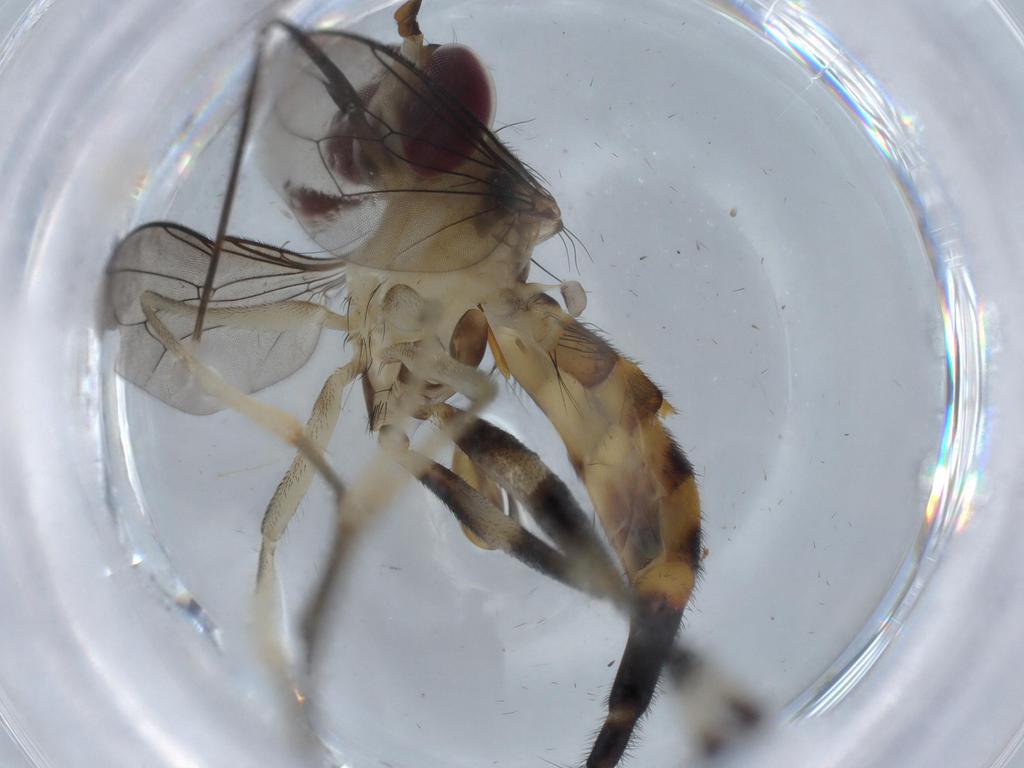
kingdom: Animalia
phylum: Arthropoda
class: Insecta
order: Diptera
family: Conopidae
